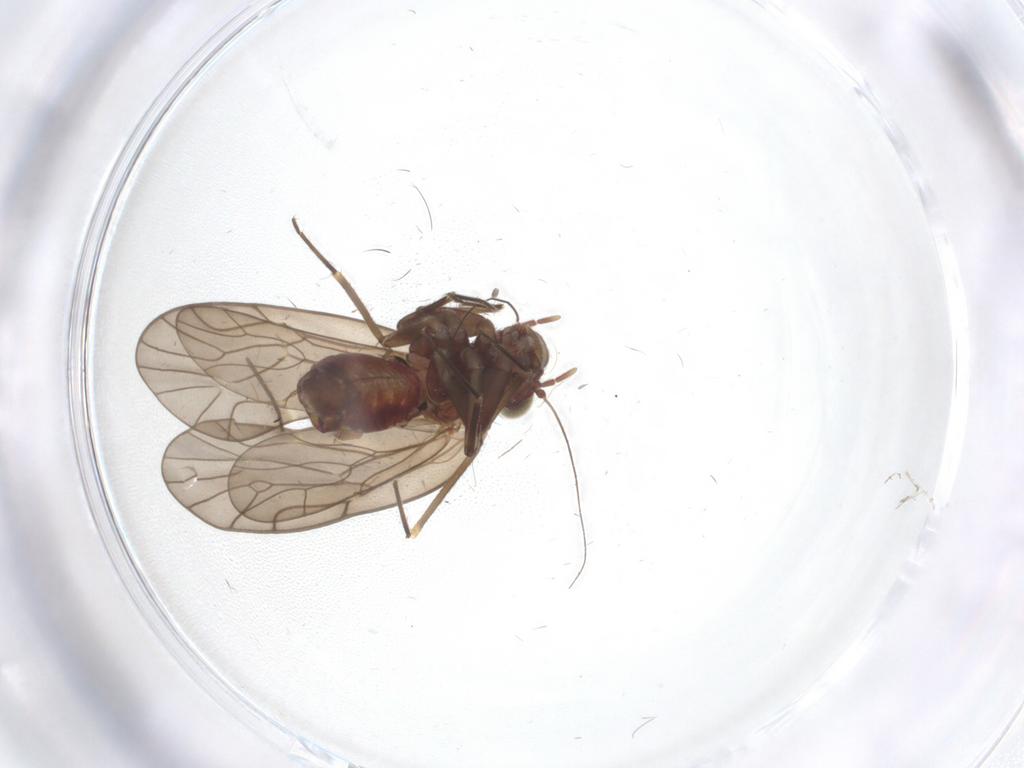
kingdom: Animalia
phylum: Arthropoda
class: Insecta
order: Psocodea
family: Philotarsidae
